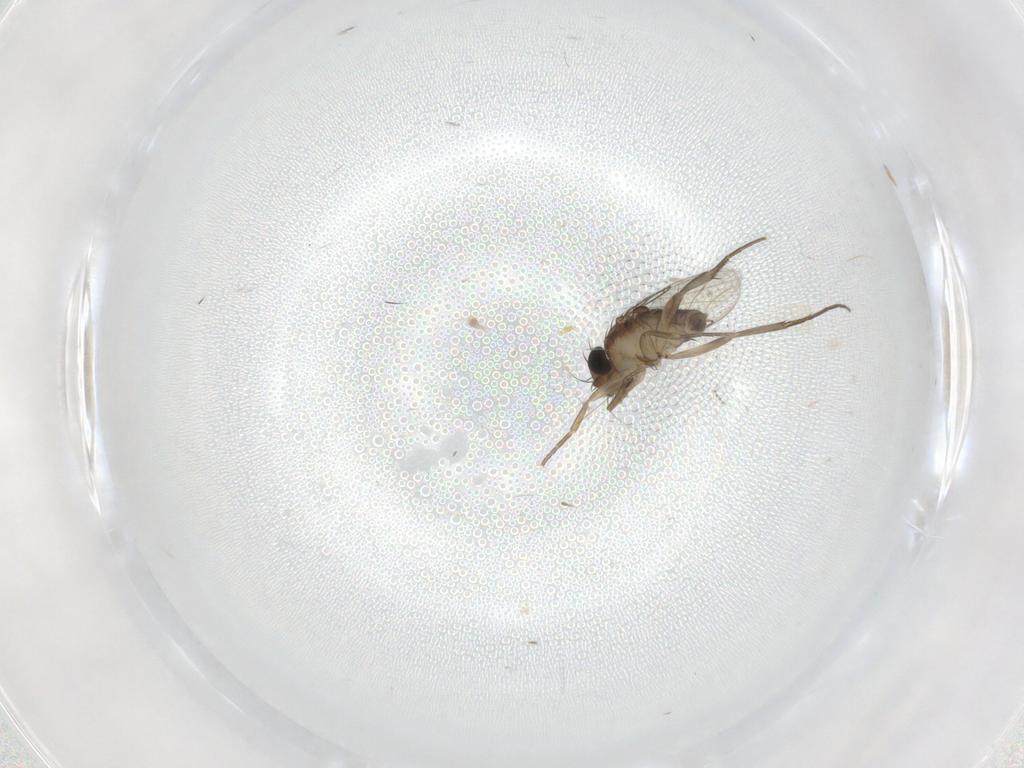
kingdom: Animalia
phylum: Arthropoda
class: Insecta
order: Diptera
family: Phoridae
